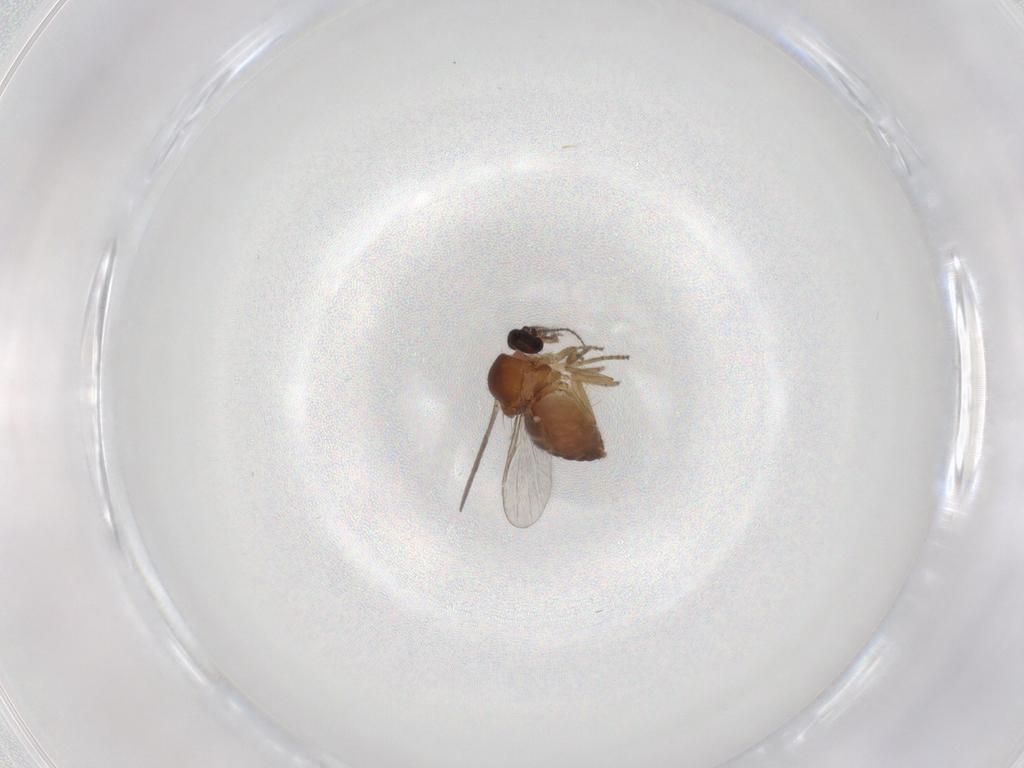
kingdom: Animalia
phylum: Arthropoda
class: Insecta
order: Diptera
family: Ceratopogonidae
